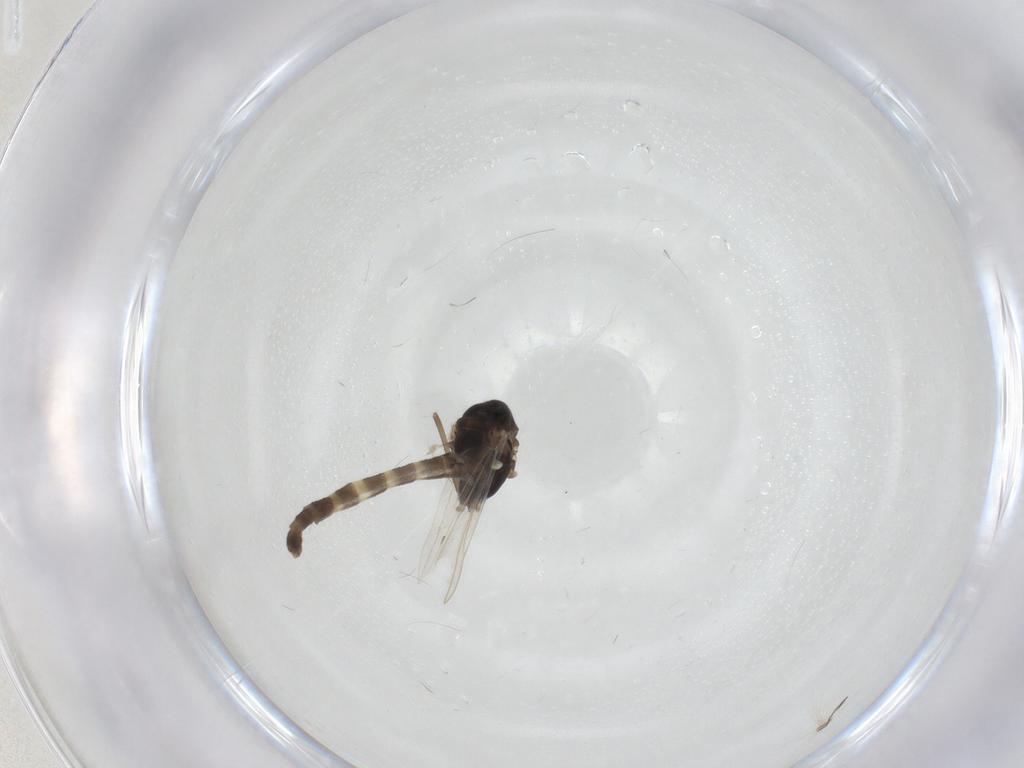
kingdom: Animalia
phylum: Arthropoda
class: Insecta
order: Diptera
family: Chironomidae
